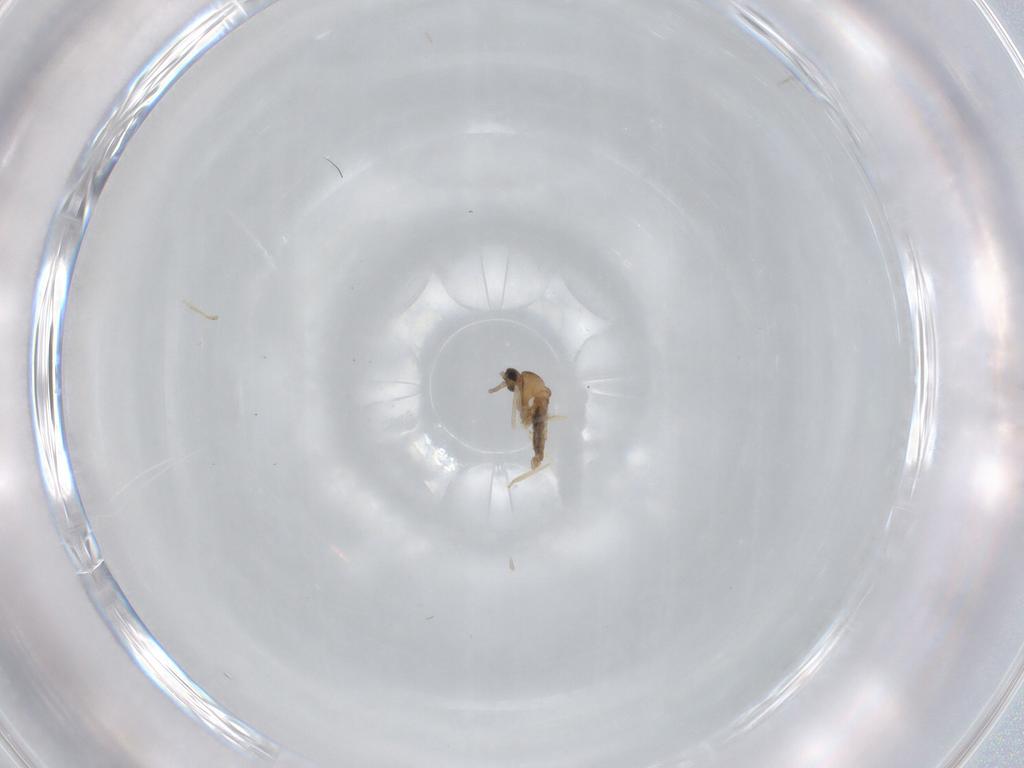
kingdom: Animalia
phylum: Arthropoda
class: Insecta
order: Diptera
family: Cecidomyiidae
